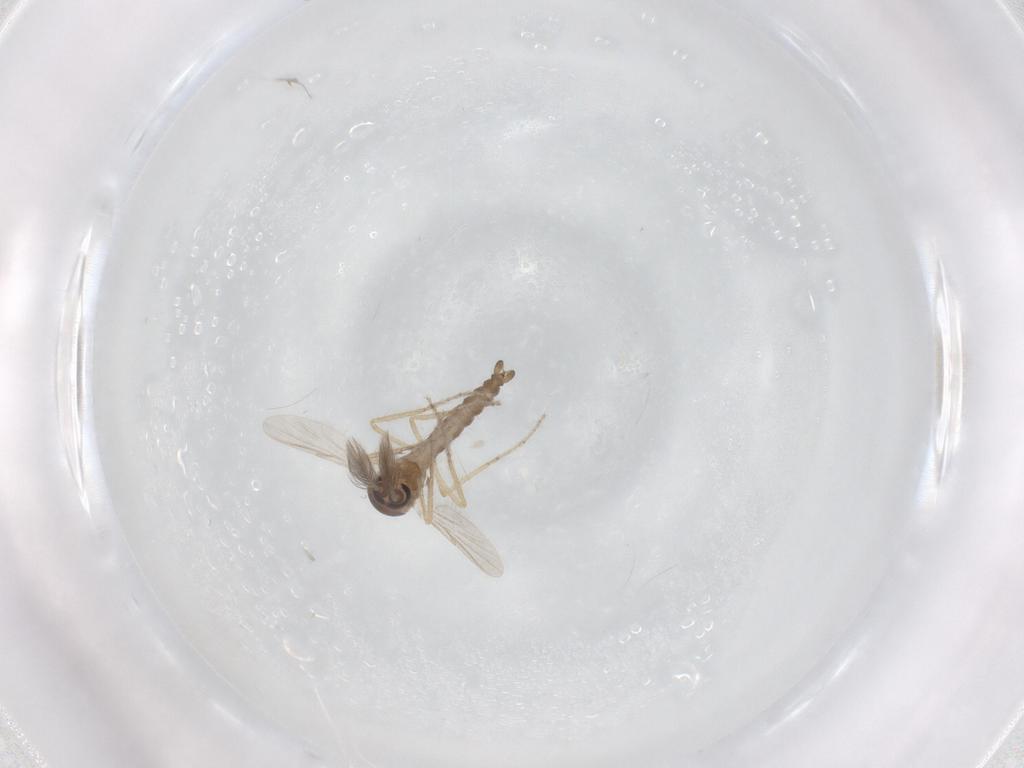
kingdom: Animalia
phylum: Arthropoda
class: Insecta
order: Diptera
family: Ceratopogonidae
